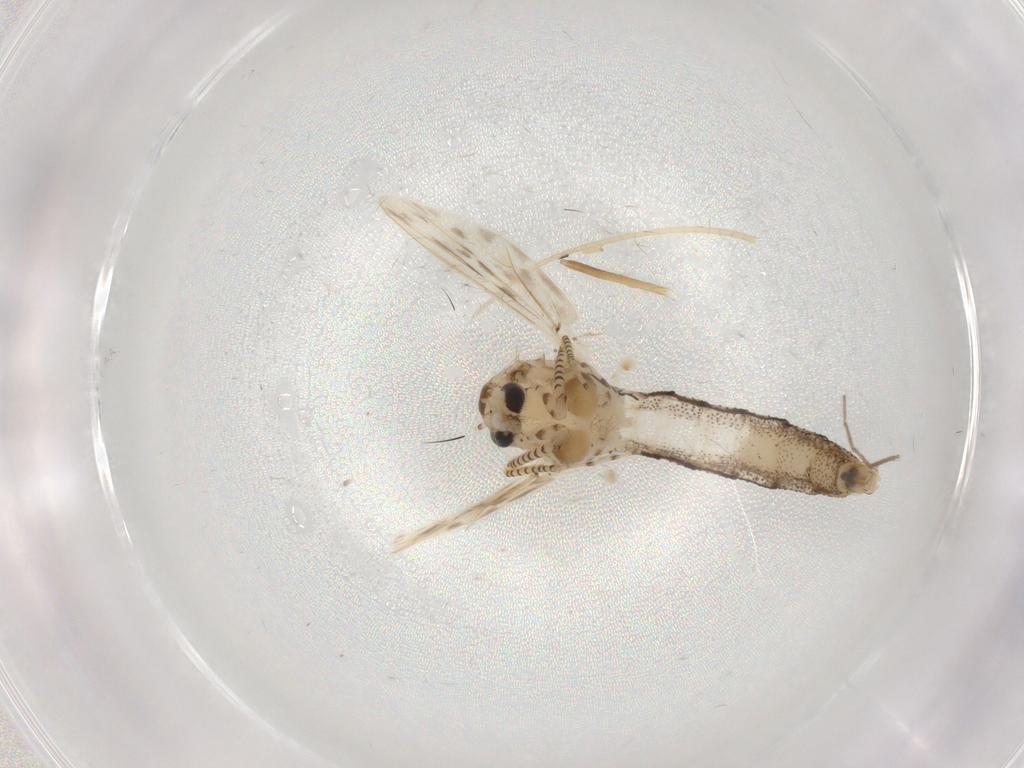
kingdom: Animalia
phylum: Arthropoda
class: Insecta
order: Diptera
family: Chaoboridae
